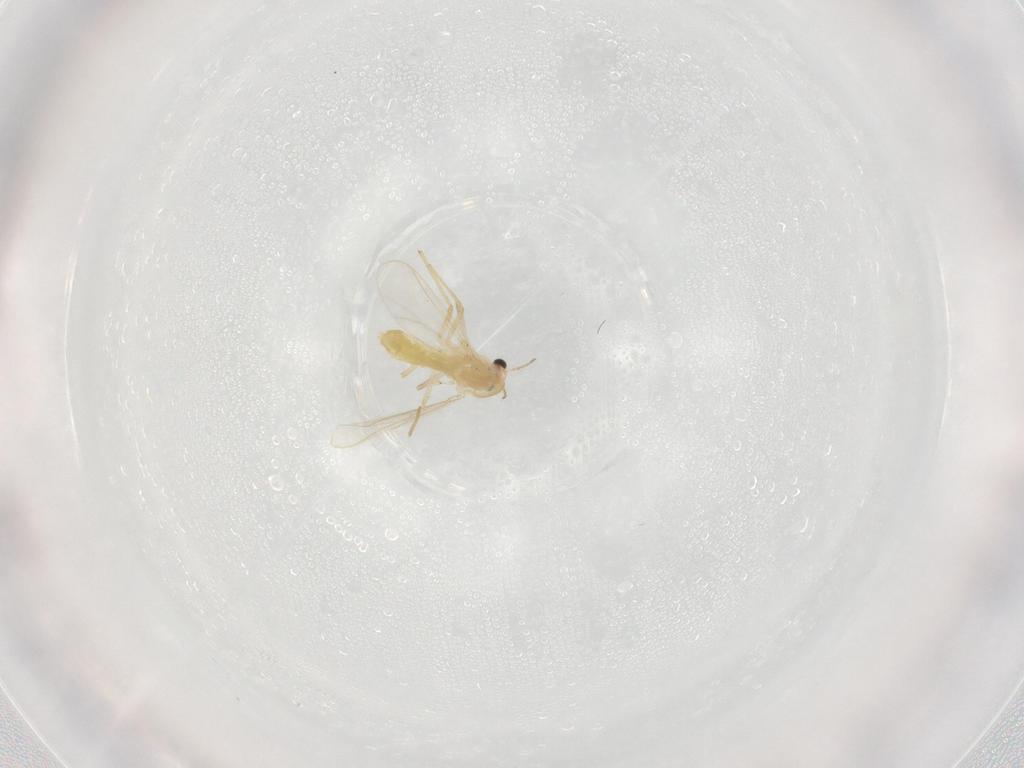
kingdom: Animalia
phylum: Arthropoda
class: Insecta
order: Diptera
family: Chironomidae
